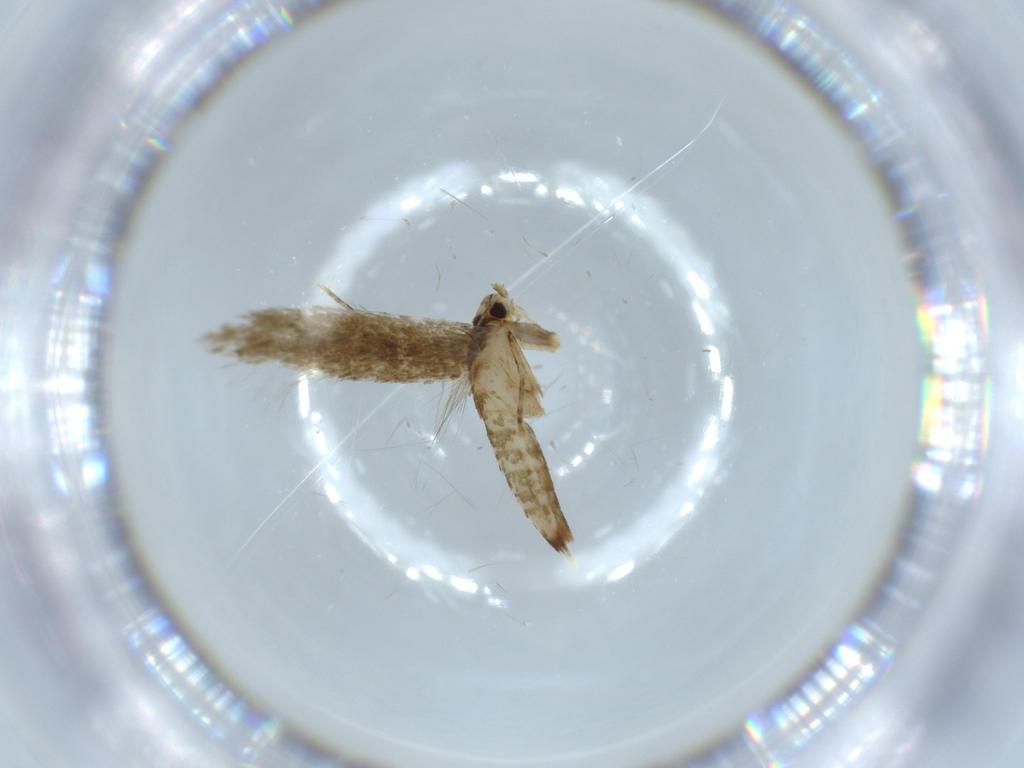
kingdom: Animalia
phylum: Arthropoda
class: Insecta
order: Lepidoptera
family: Tineidae
